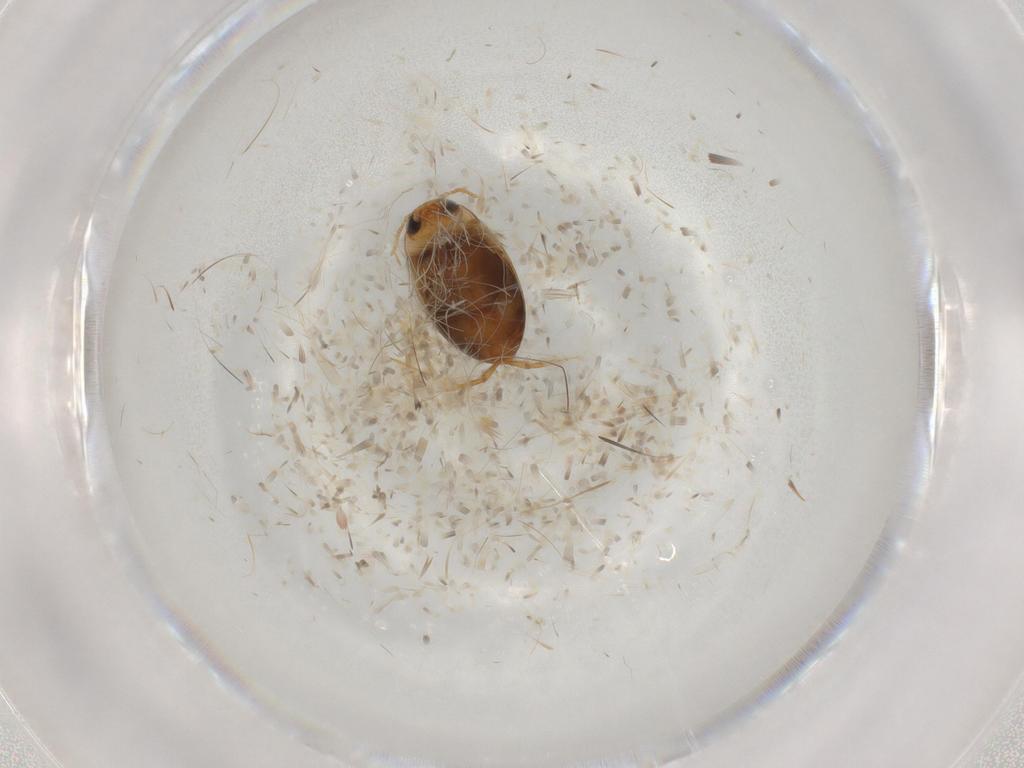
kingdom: Animalia
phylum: Arthropoda
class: Insecta
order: Coleoptera
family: Dytiscidae
